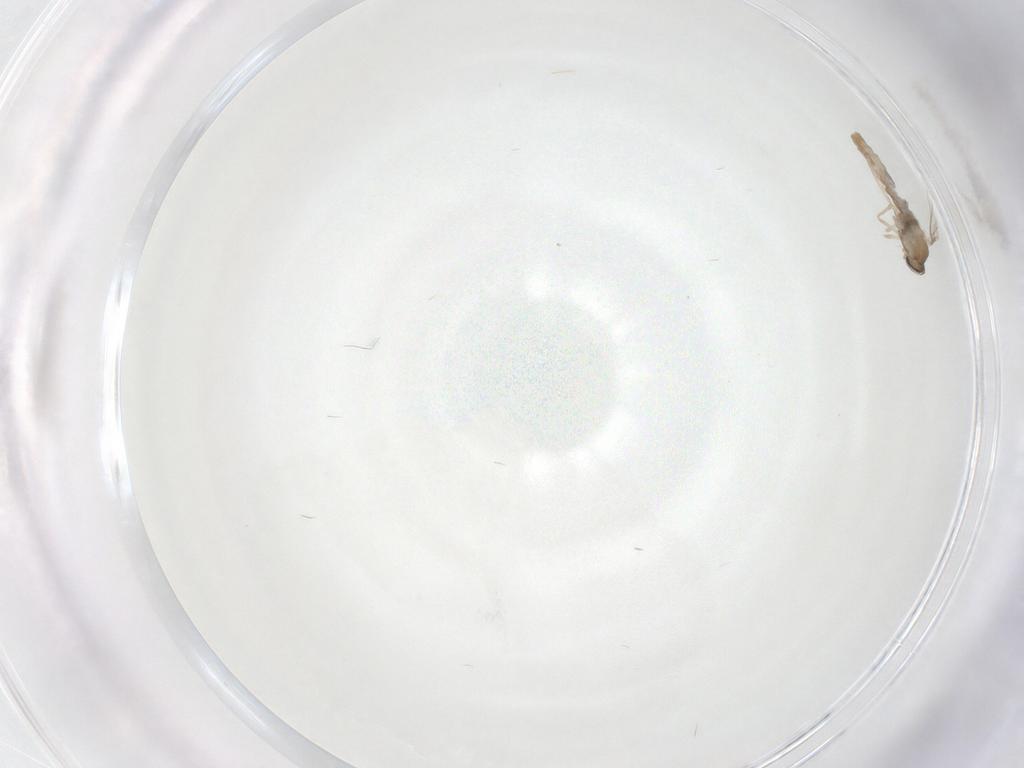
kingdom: Animalia
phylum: Arthropoda
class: Insecta
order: Diptera
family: Cecidomyiidae
